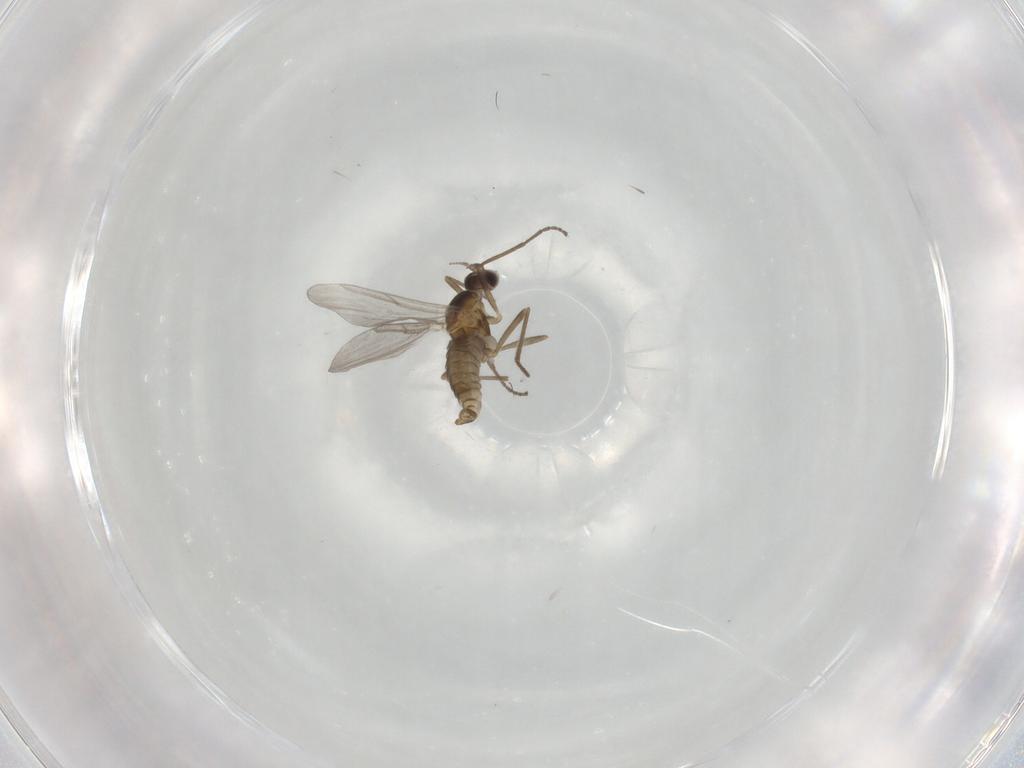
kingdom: Animalia
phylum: Arthropoda
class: Insecta
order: Diptera
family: Cecidomyiidae
